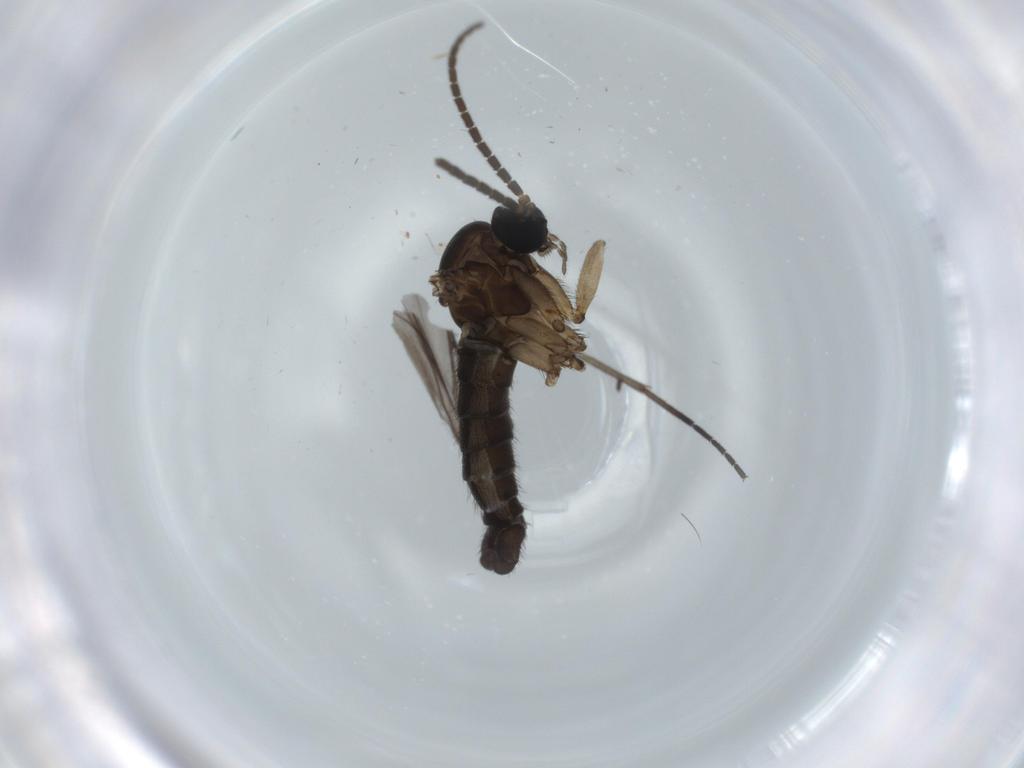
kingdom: Animalia
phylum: Arthropoda
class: Insecta
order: Diptera
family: Sciaridae
